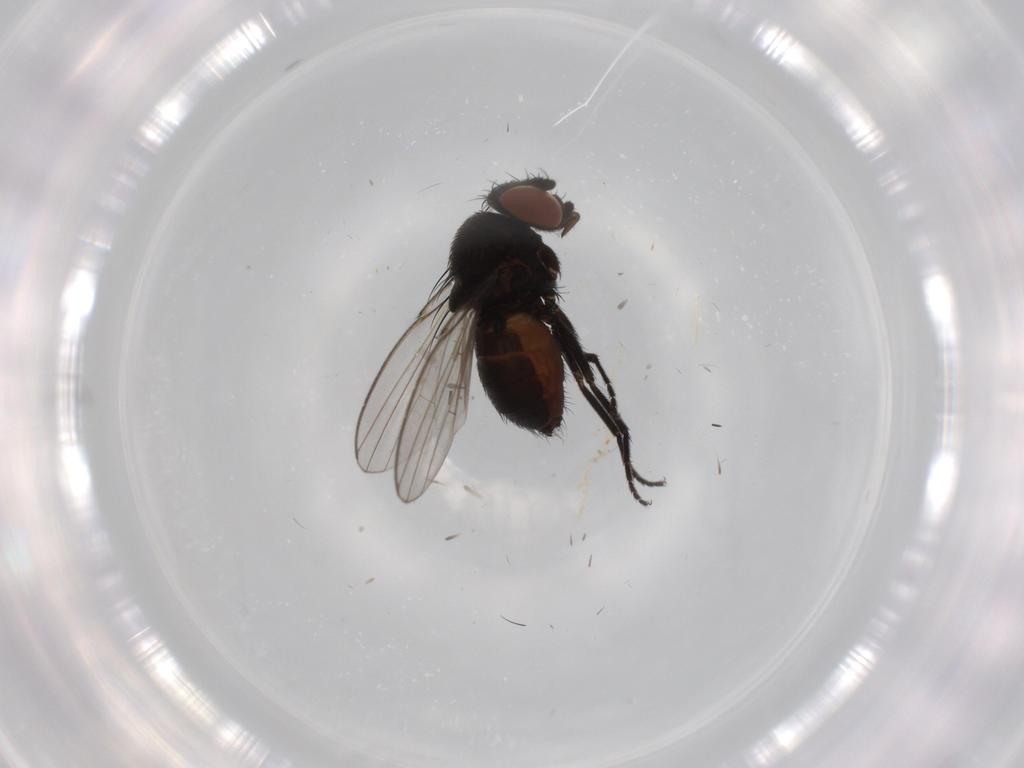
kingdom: Animalia
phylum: Arthropoda
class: Insecta
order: Diptera
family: Milichiidae
